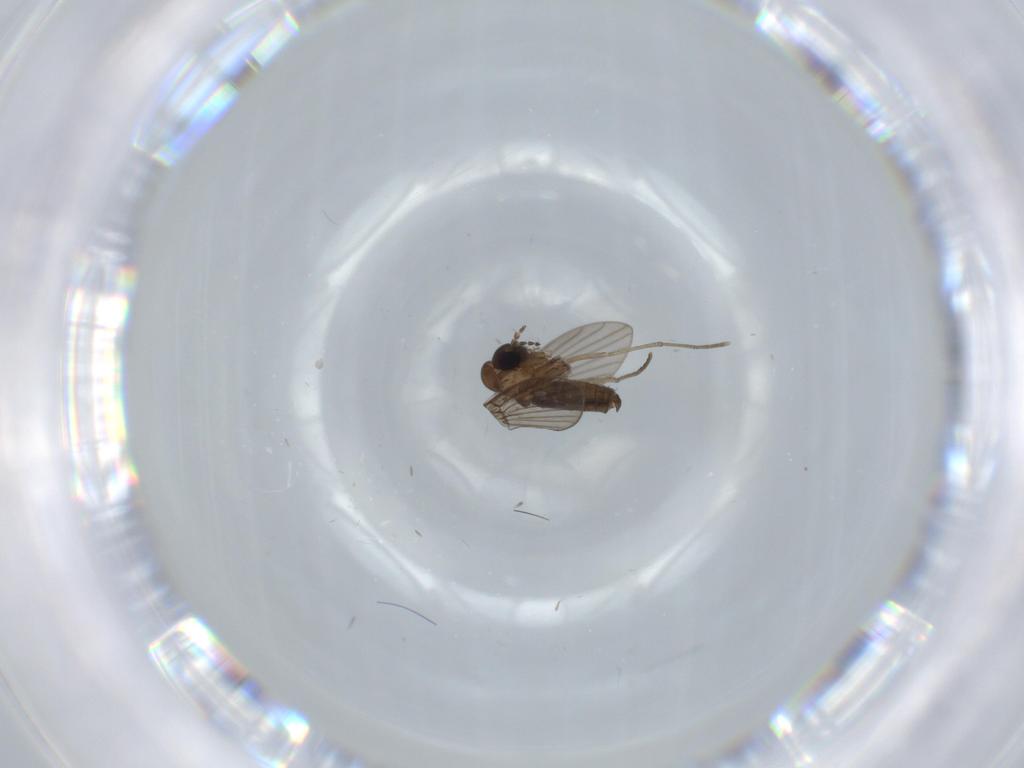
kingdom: Animalia
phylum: Arthropoda
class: Insecta
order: Diptera
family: Psychodidae
